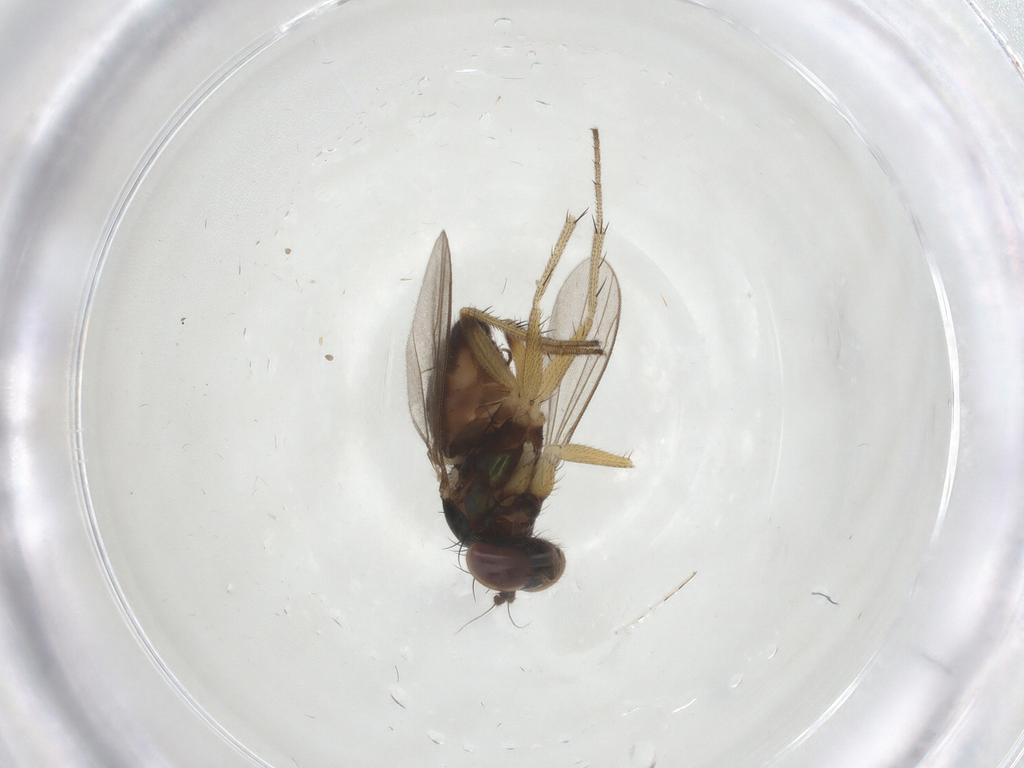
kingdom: Animalia
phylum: Arthropoda
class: Insecta
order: Diptera
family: Dolichopodidae
